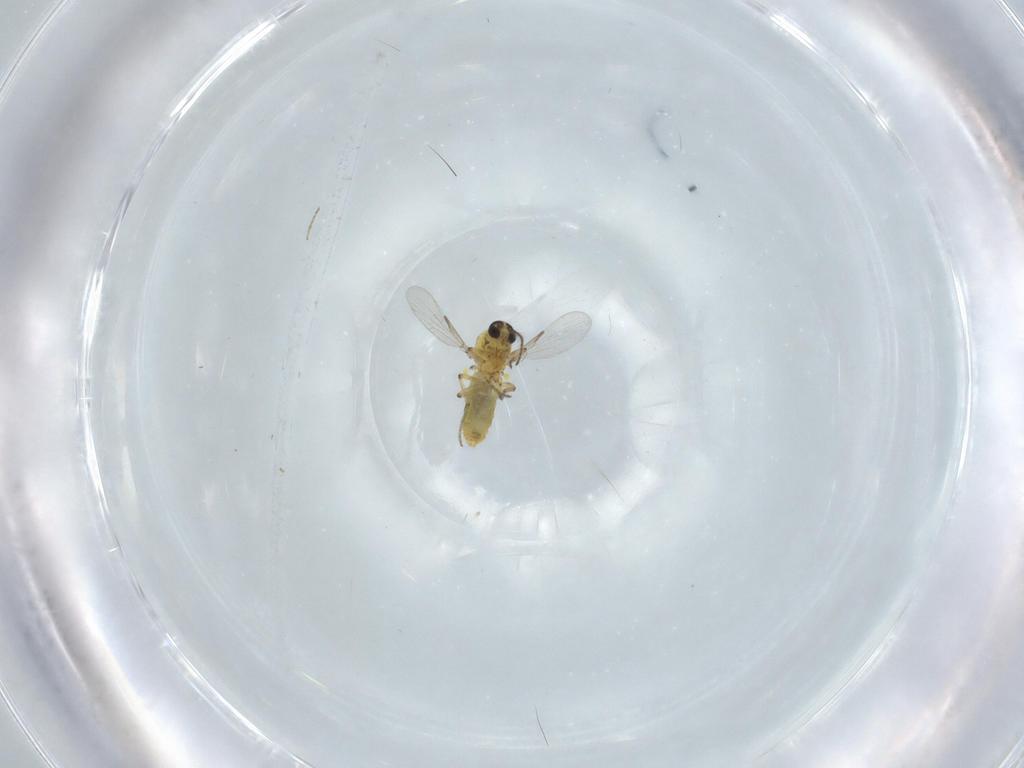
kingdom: Animalia
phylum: Arthropoda
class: Insecta
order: Diptera
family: Ceratopogonidae
